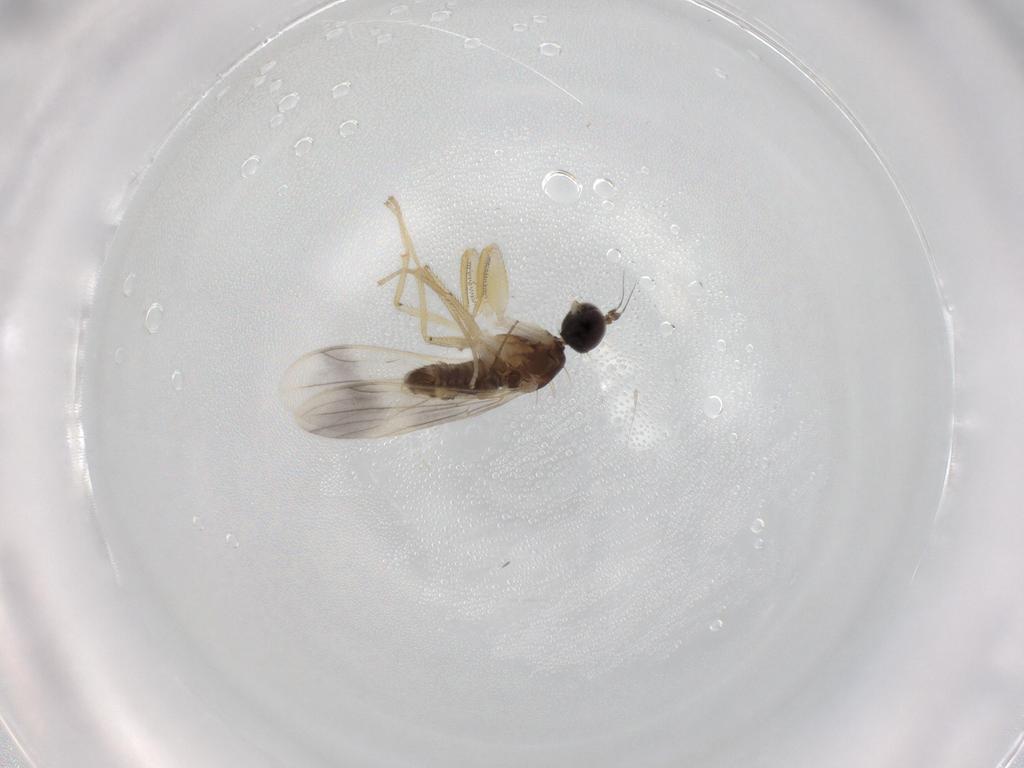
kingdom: Animalia
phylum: Arthropoda
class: Insecta
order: Diptera
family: Empididae
